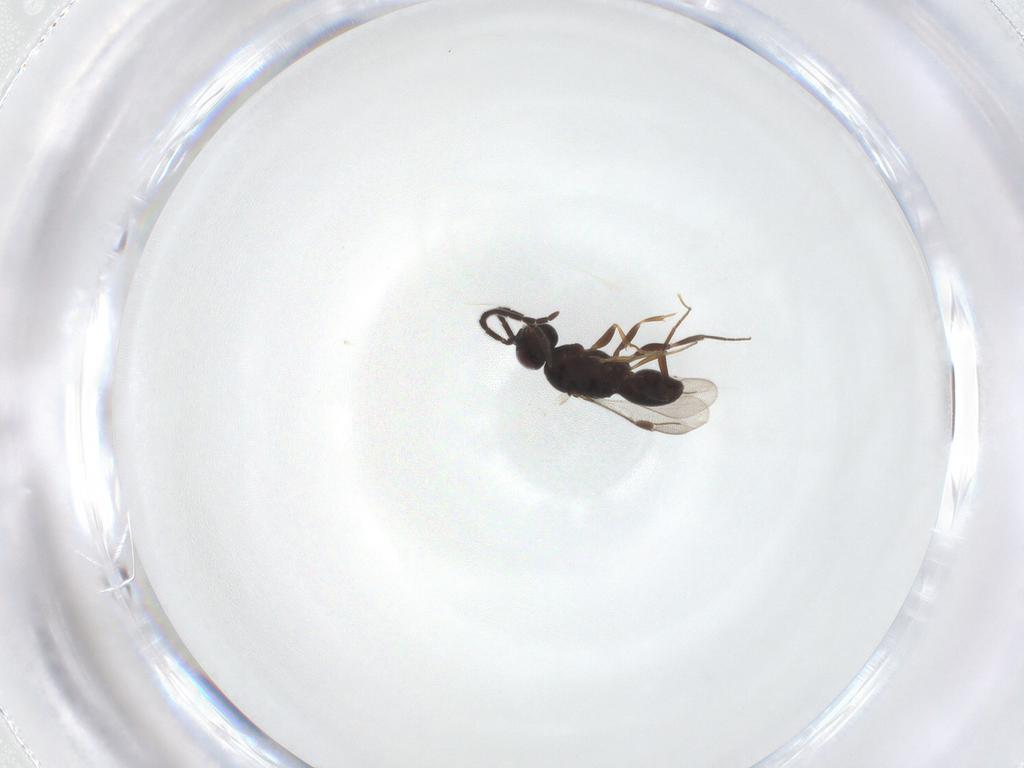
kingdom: Animalia
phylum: Arthropoda
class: Insecta
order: Hymenoptera
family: Megaspilidae
